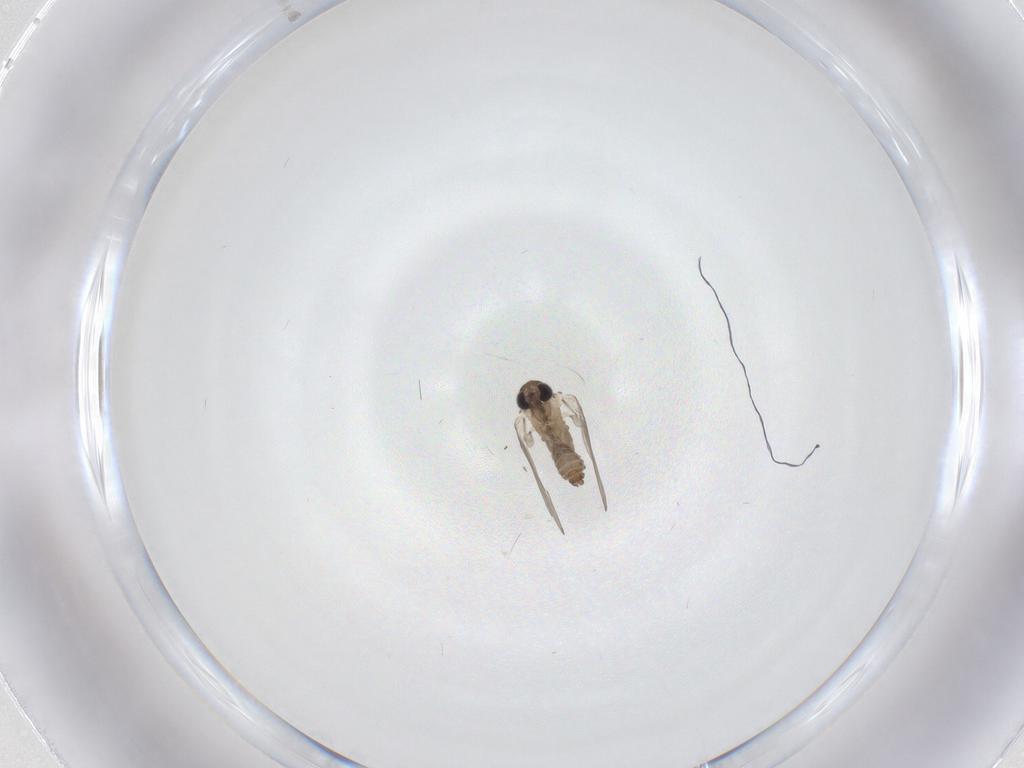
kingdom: Animalia
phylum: Arthropoda
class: Insecta
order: Diptera
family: Psychodidae
